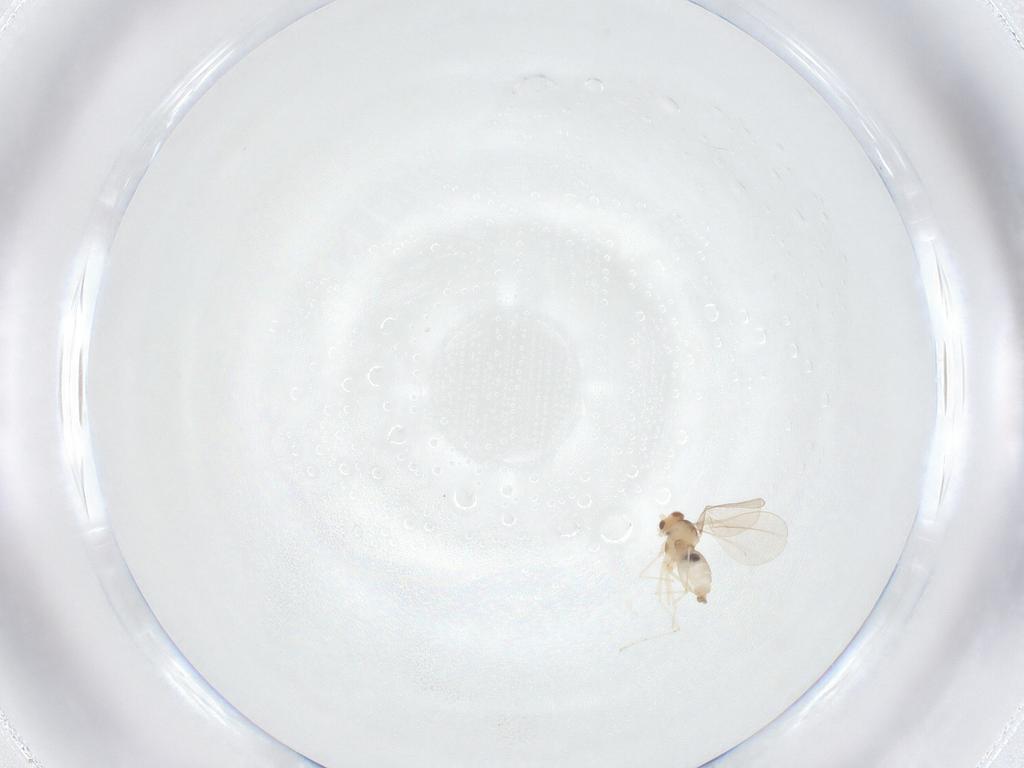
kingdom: Animalia
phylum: Arthropoda
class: Insecta
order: Diptera
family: Cecidomyiidae
